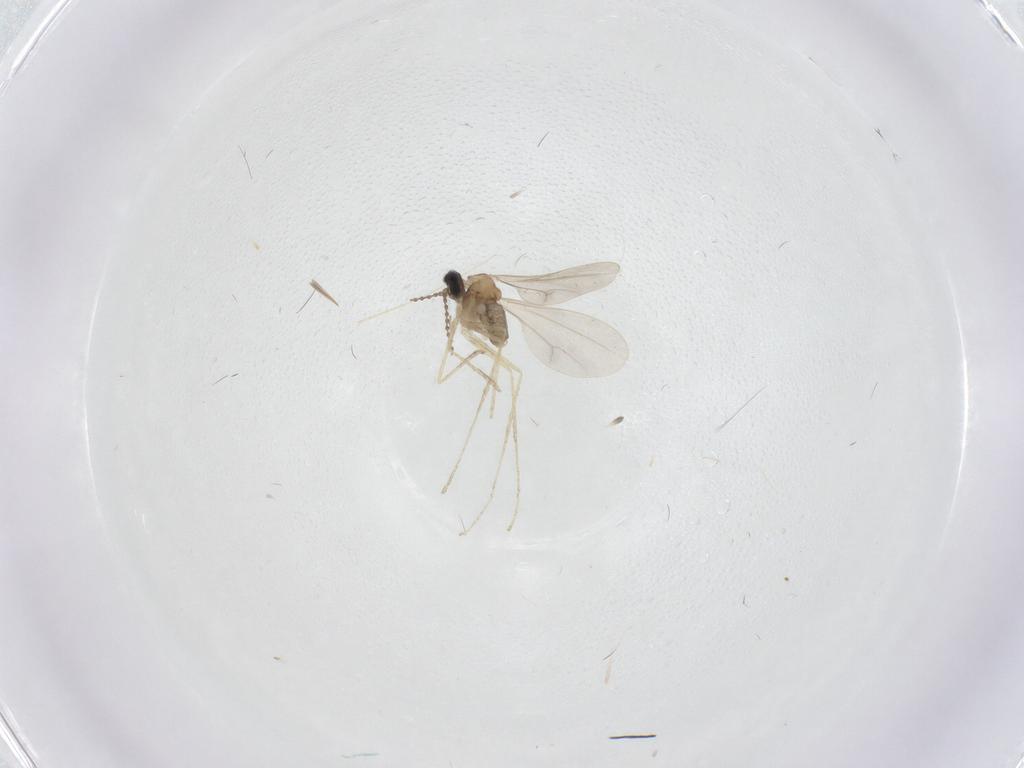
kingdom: Animalia
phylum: Arthropoda
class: Insecta
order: Diptera
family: Cecidomyiidae
